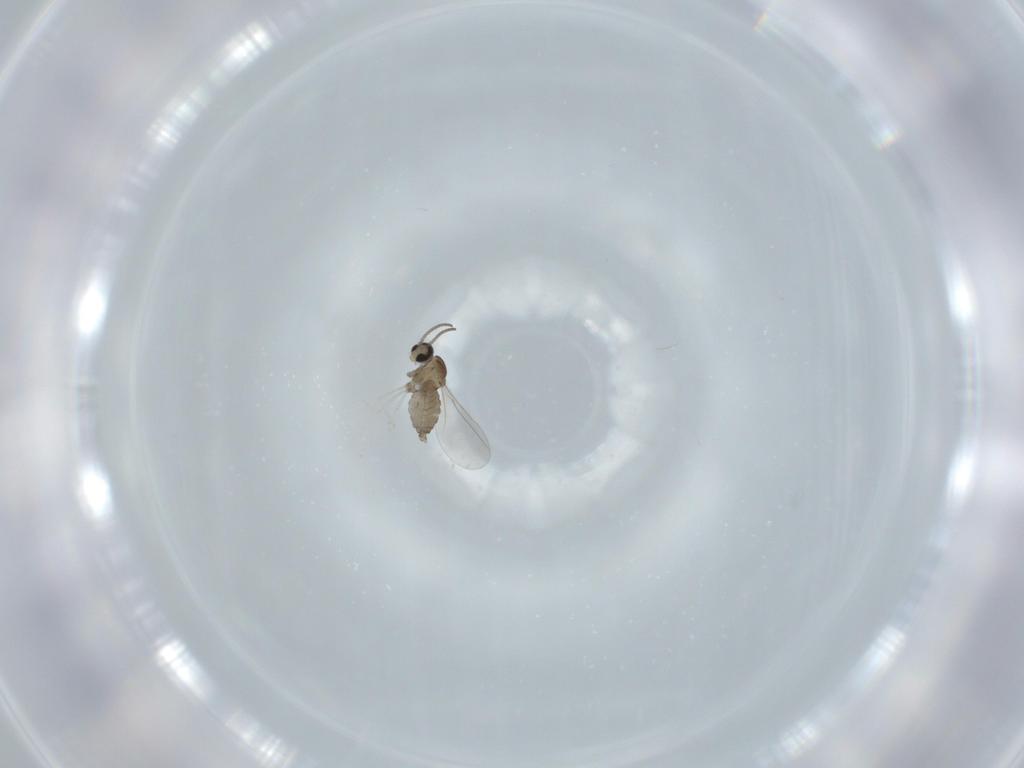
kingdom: Animalia
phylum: Arthropoda
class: Insecta
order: Diptera
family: Cecidomyiidae
